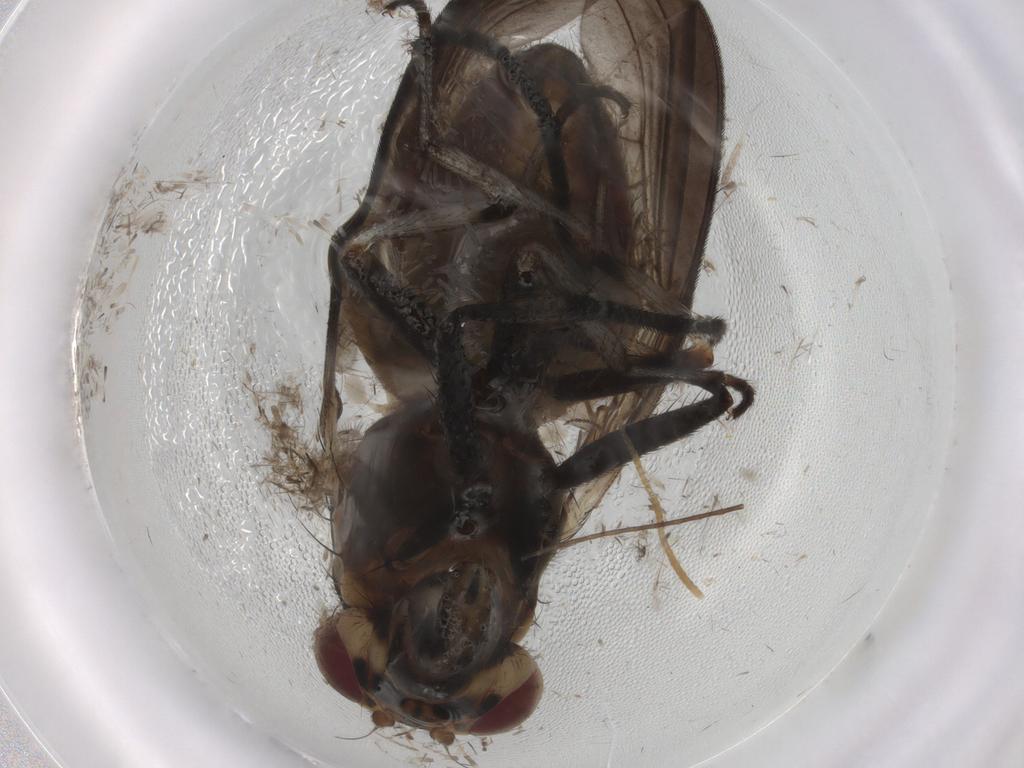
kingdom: Animalia
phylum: Arthropoda
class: Insecta
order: Diptera
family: Phoridae
